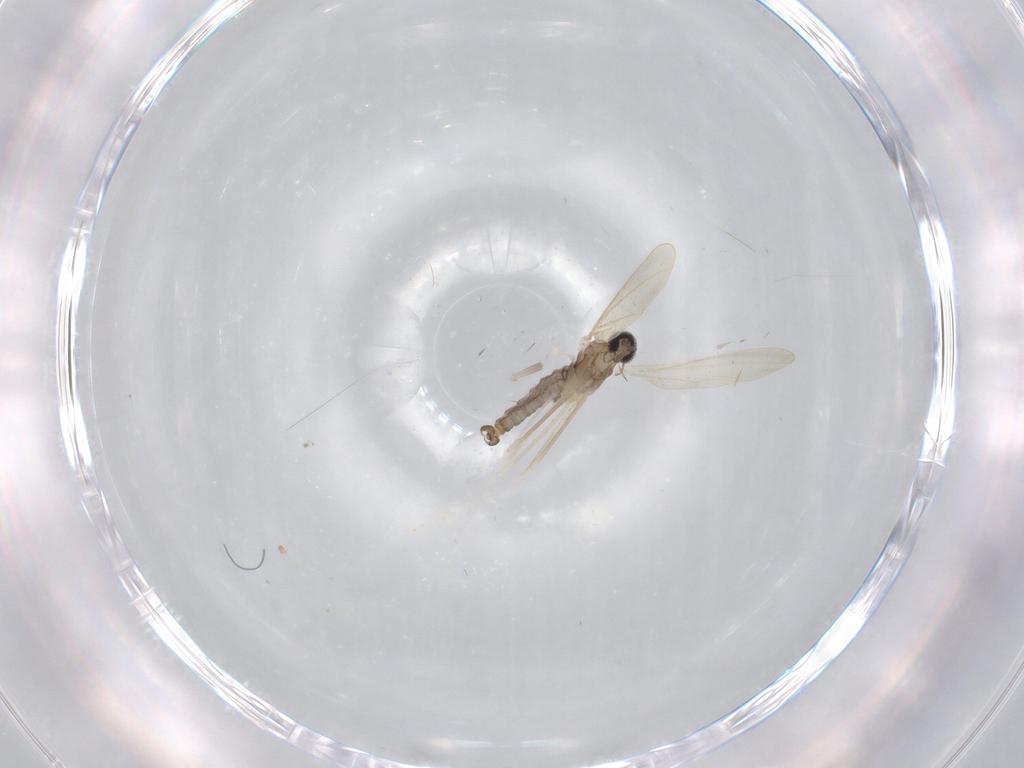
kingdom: Animalia
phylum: Arthropoda
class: Insecta
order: Diptera
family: Cecidomyiidae
